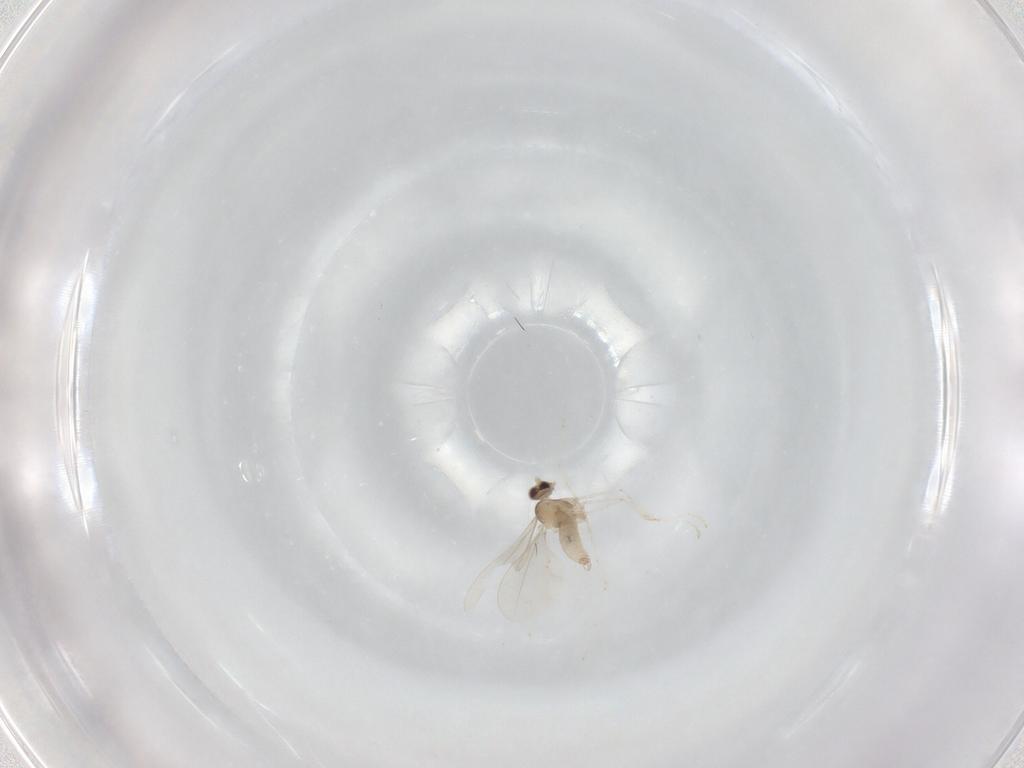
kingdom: Animalia
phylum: Arthropoda
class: Insecta
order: Diptera
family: Cecidomyiidae
